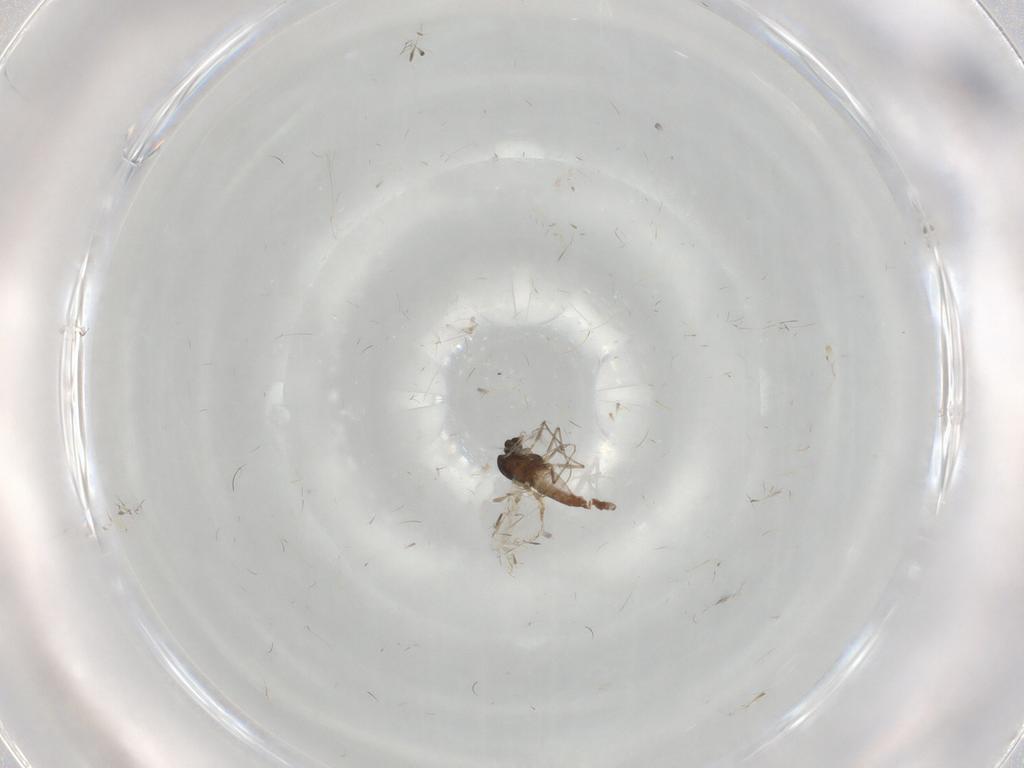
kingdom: Animalia
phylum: Arthropoda
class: Insecta
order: Diptera
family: Chironomidae
